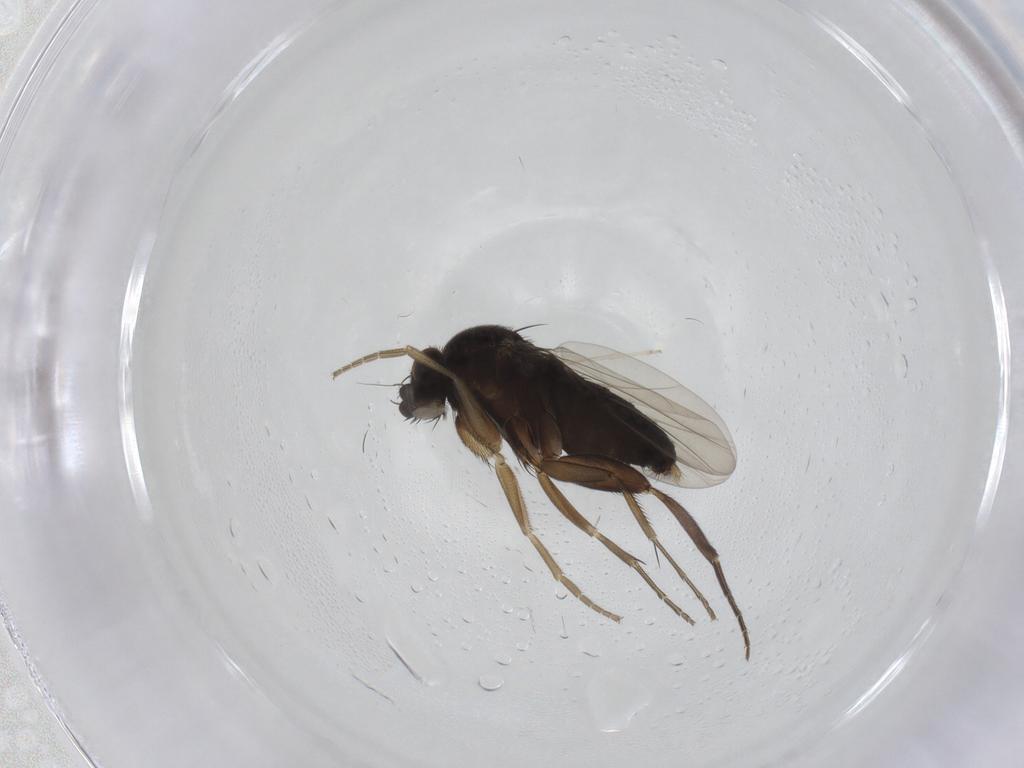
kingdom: Animalia
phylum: Arthropoda
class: Insecta
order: Diptera
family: Phoridae
